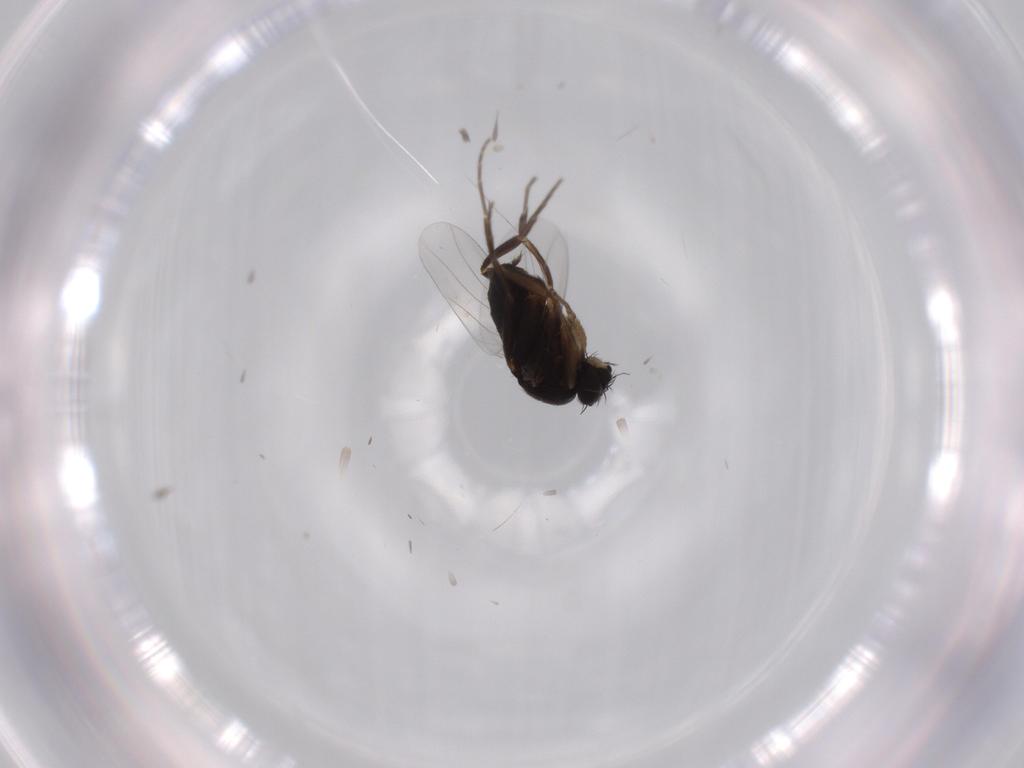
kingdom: Animalia
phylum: Arthropoda
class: Insecta
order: Diptera
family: Phoridae
